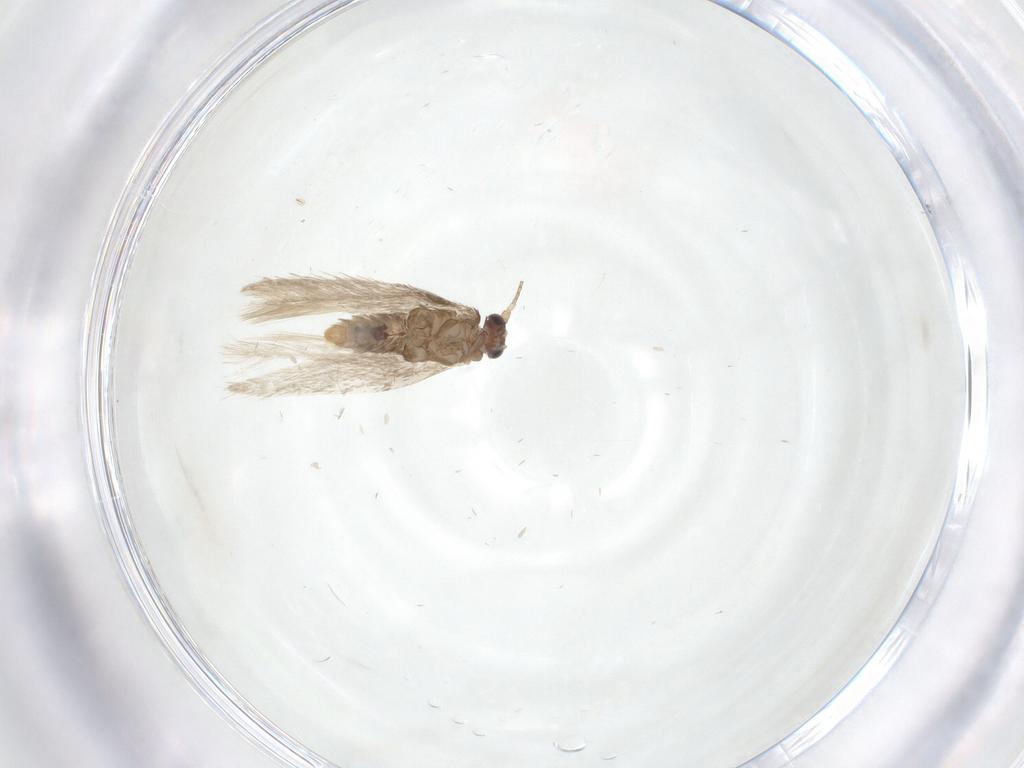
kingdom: Animalia
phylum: Arthropoda
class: Insecta
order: Lepidoptera
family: Nepticulidae
